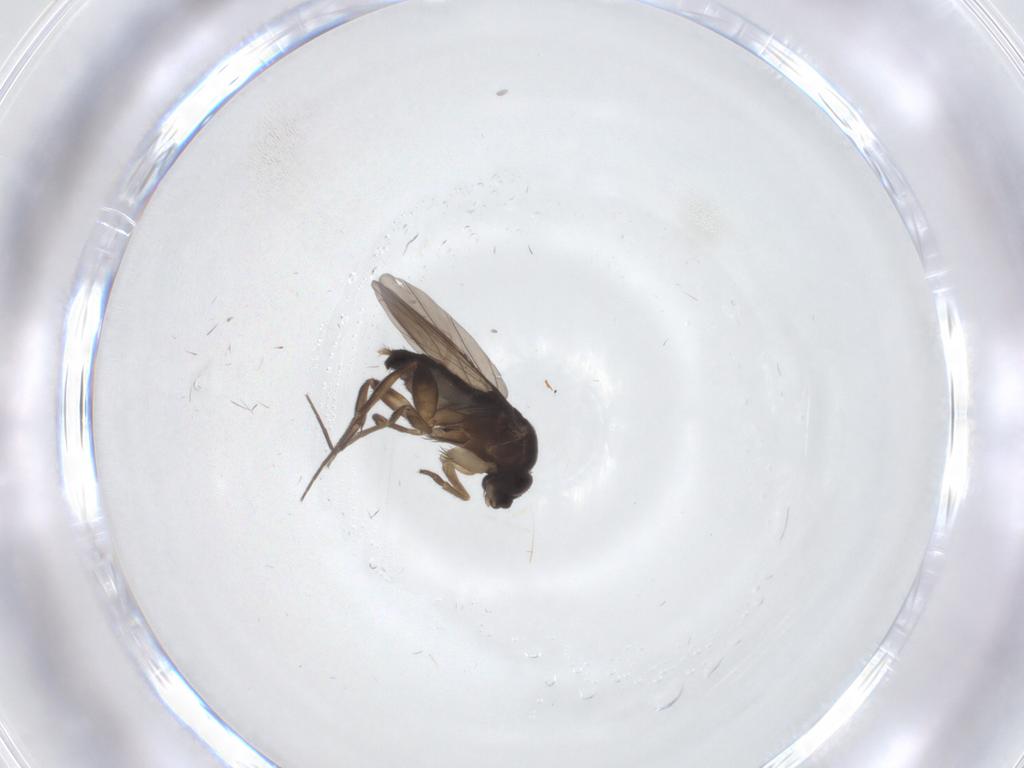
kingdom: Animalia
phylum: Arthropoda
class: Insecta
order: Diptera
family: Phoridae
